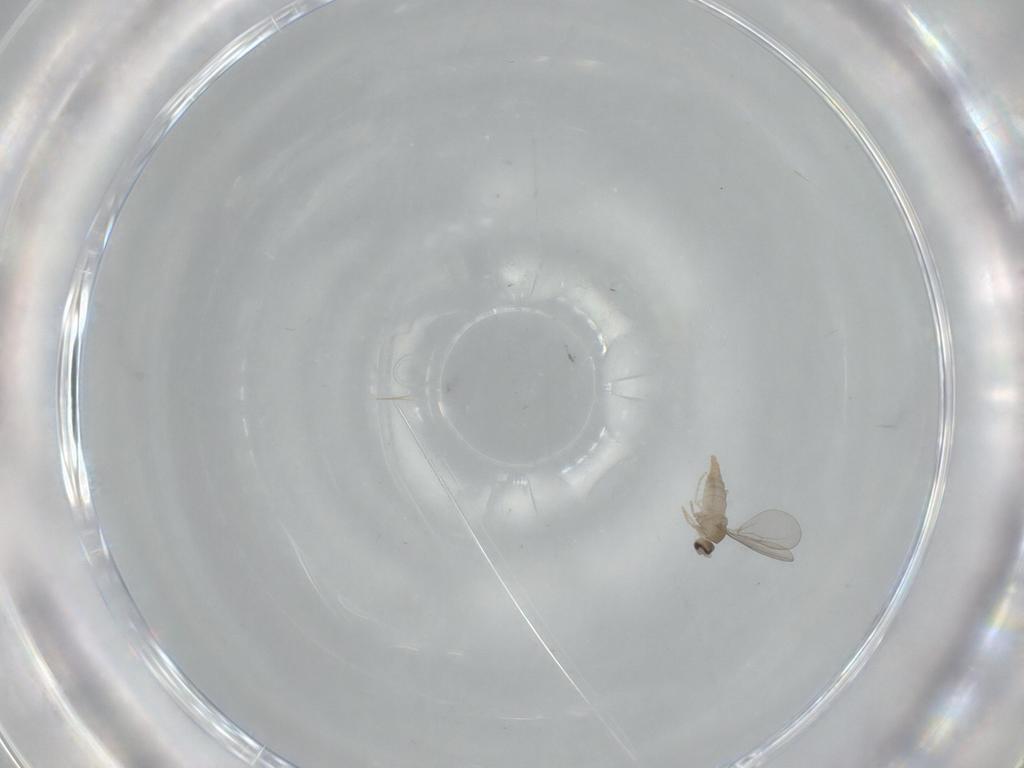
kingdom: Animalia
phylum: Arthropoda
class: Insecta
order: Diptera
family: Cecidomyiidae
